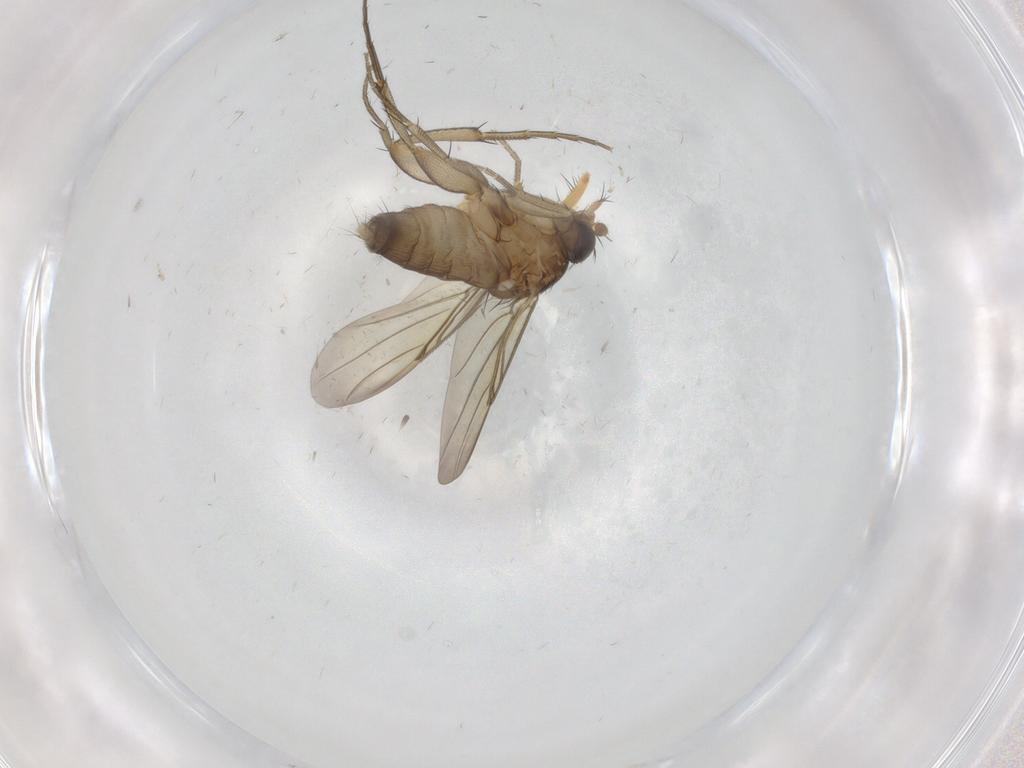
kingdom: Animalia
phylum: Arthropoda
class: Insecta
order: Diptera
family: Phoridae
